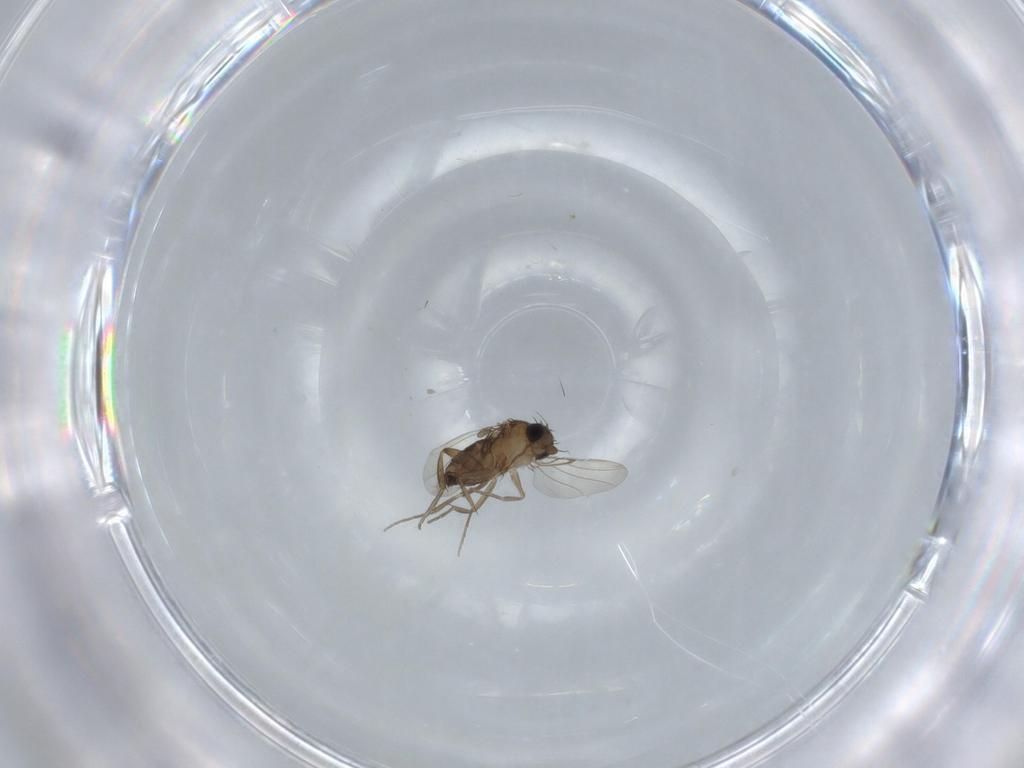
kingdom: Animalia
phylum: Arthropoda
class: Insecta
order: Diptera
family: Phoridae
